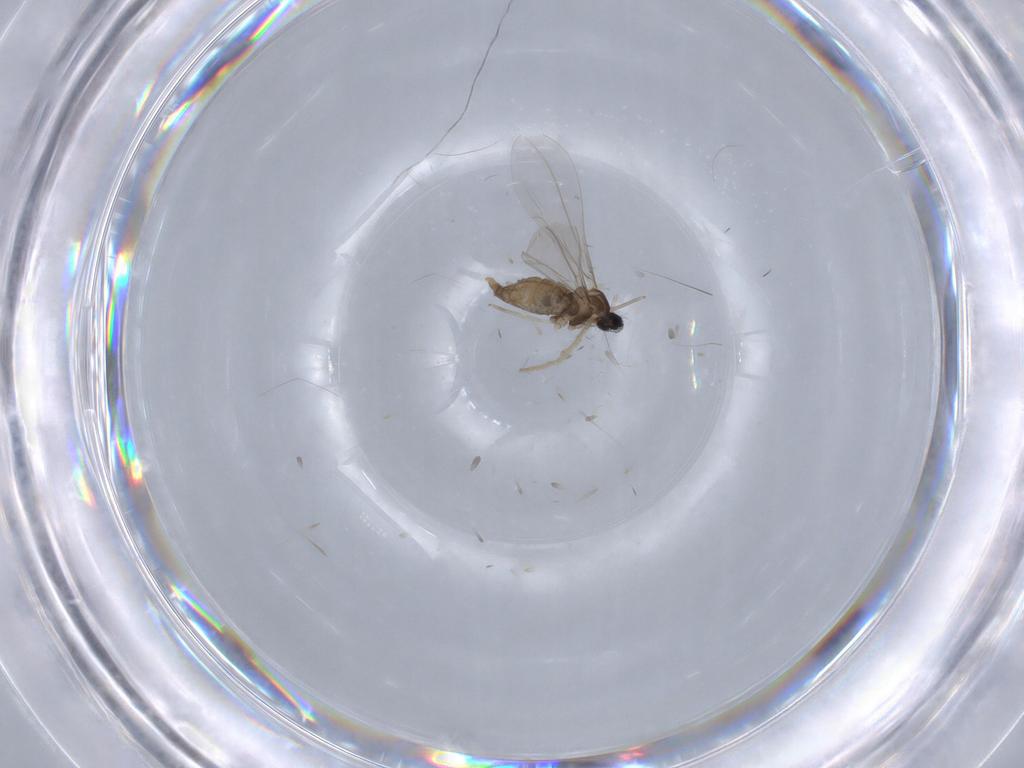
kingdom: Animalia
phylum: Arthropoda
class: Insecta
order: Diptera
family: Cecidomyiidae
